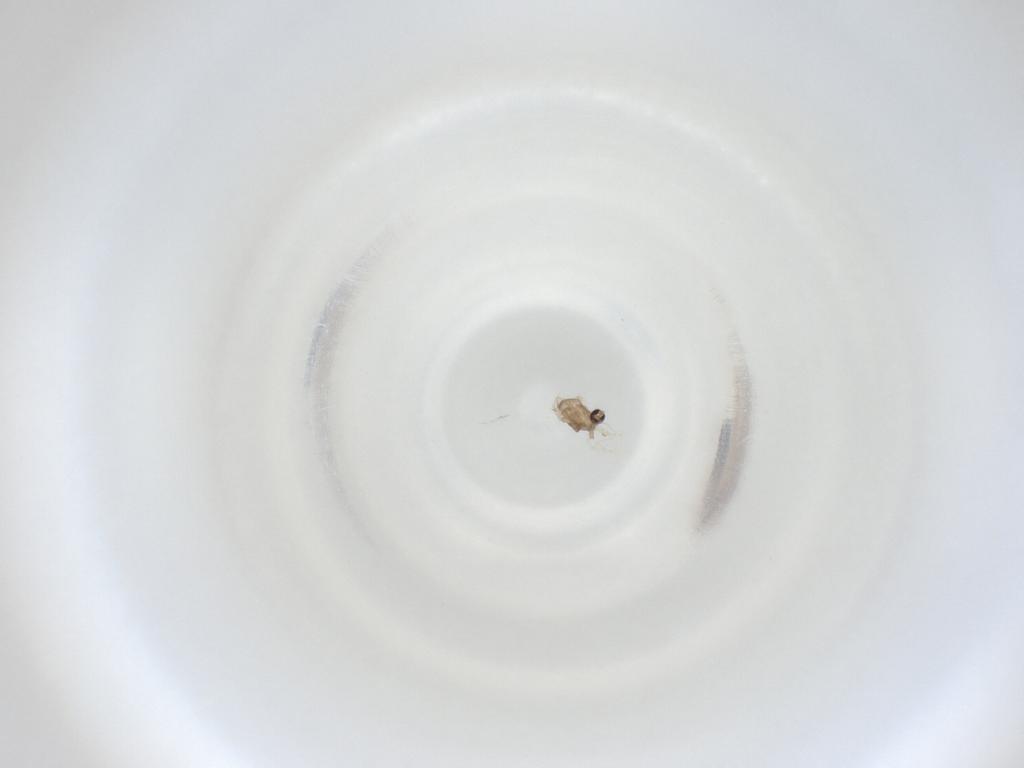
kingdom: Animalia
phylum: Arthropoda
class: Insecta
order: Diptera
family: Cecidomyiidae
